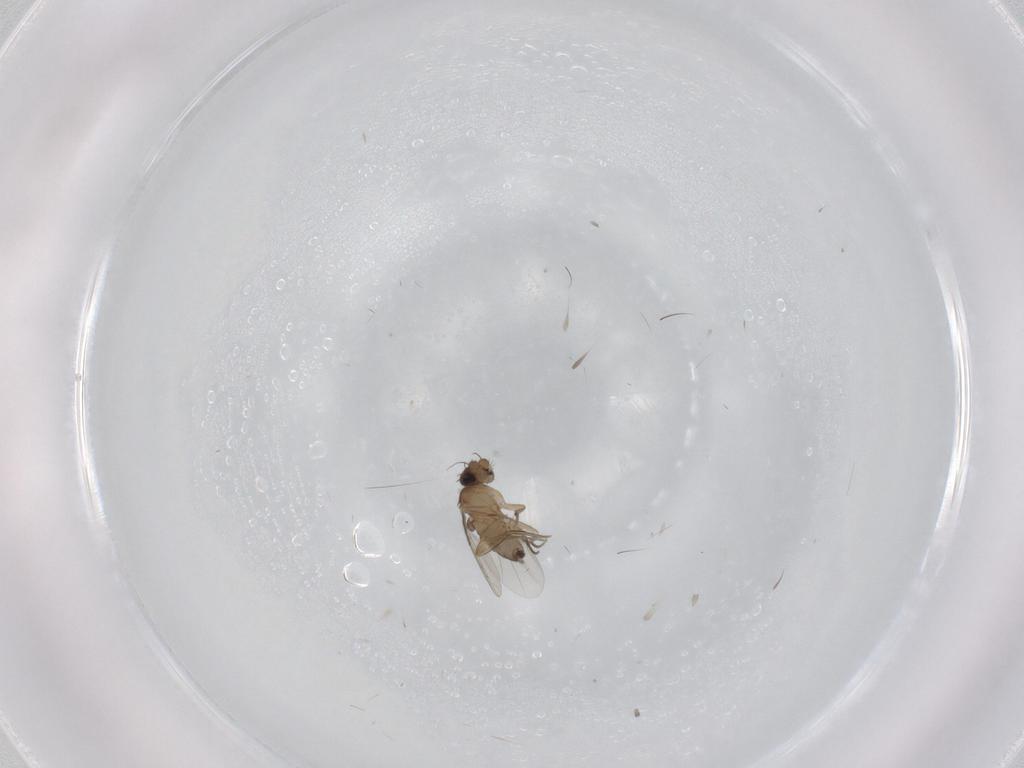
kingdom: Animalia
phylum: Arthropoda
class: Insecta
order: Diptera
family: Phoridae
